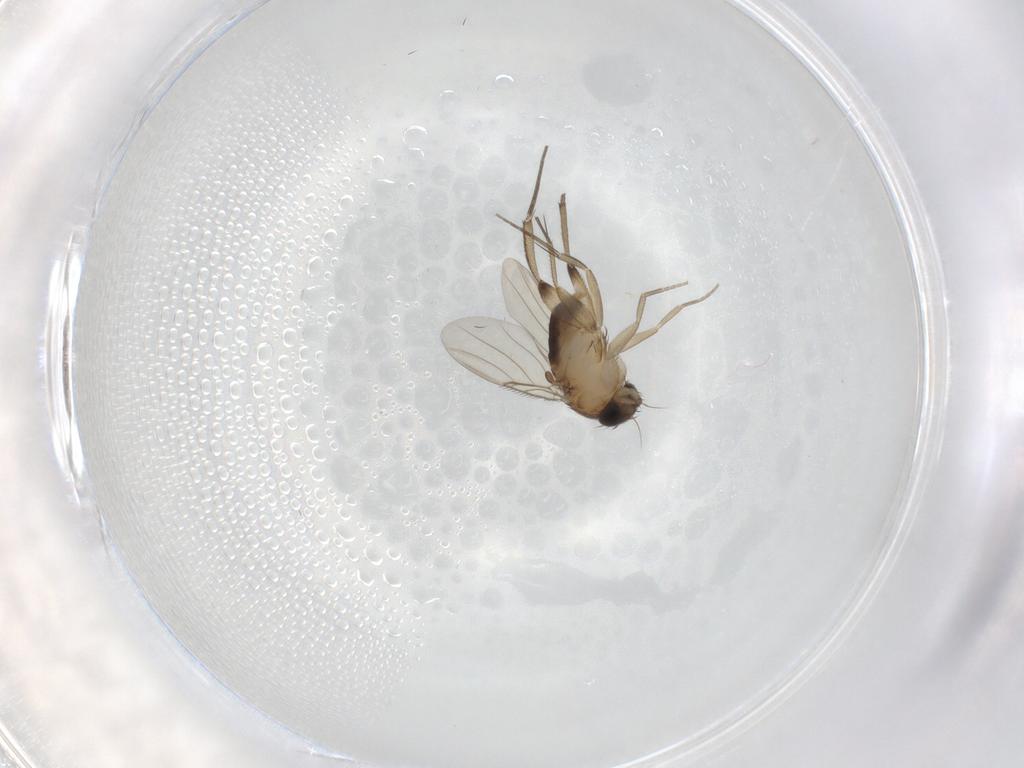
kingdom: Animalia
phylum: Arthropoda
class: Insecta
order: Diptera
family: Phoridae
